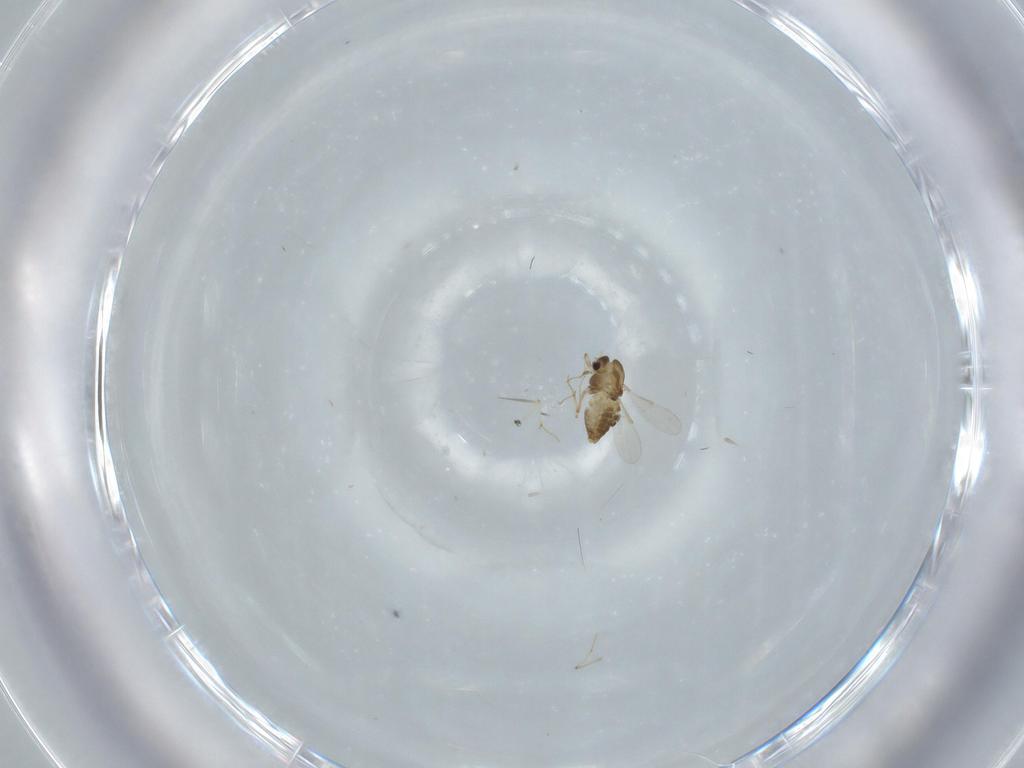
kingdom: Animalia
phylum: Arthropoda
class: Insecta
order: Diptera
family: Chironomidae
